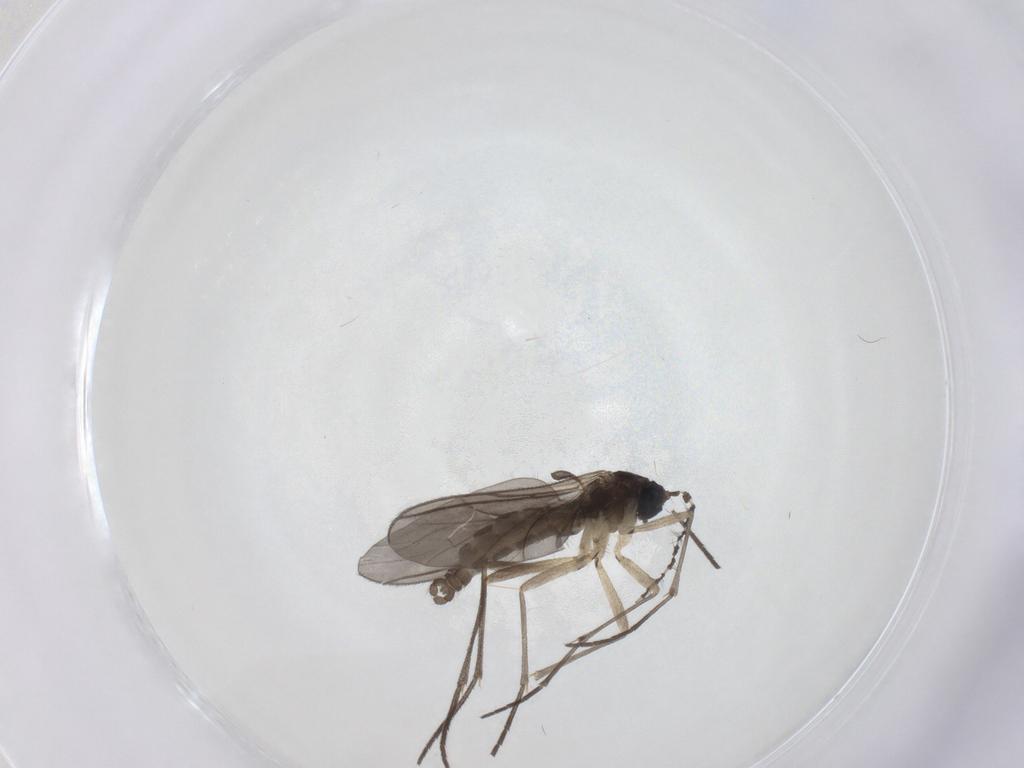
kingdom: Animalia
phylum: Arthropoda
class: Insecta
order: Diptera
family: Sciaridae
